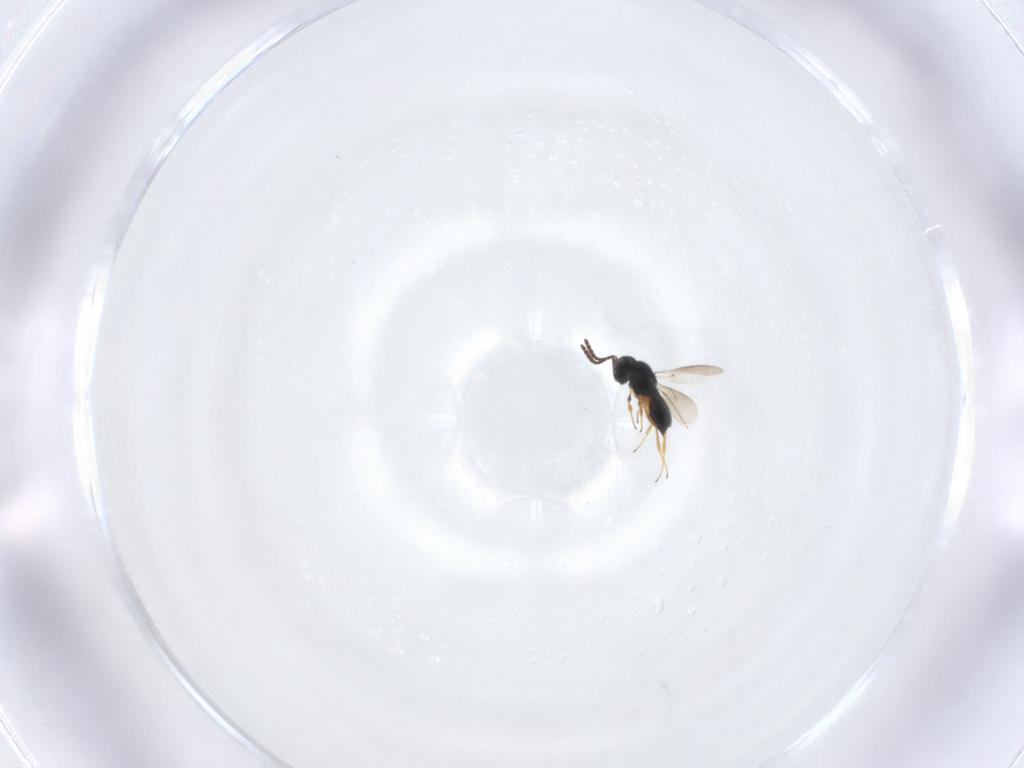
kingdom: Animalia
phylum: Arthropoda
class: Insecta
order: Hymenoptera
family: Scelionidae
